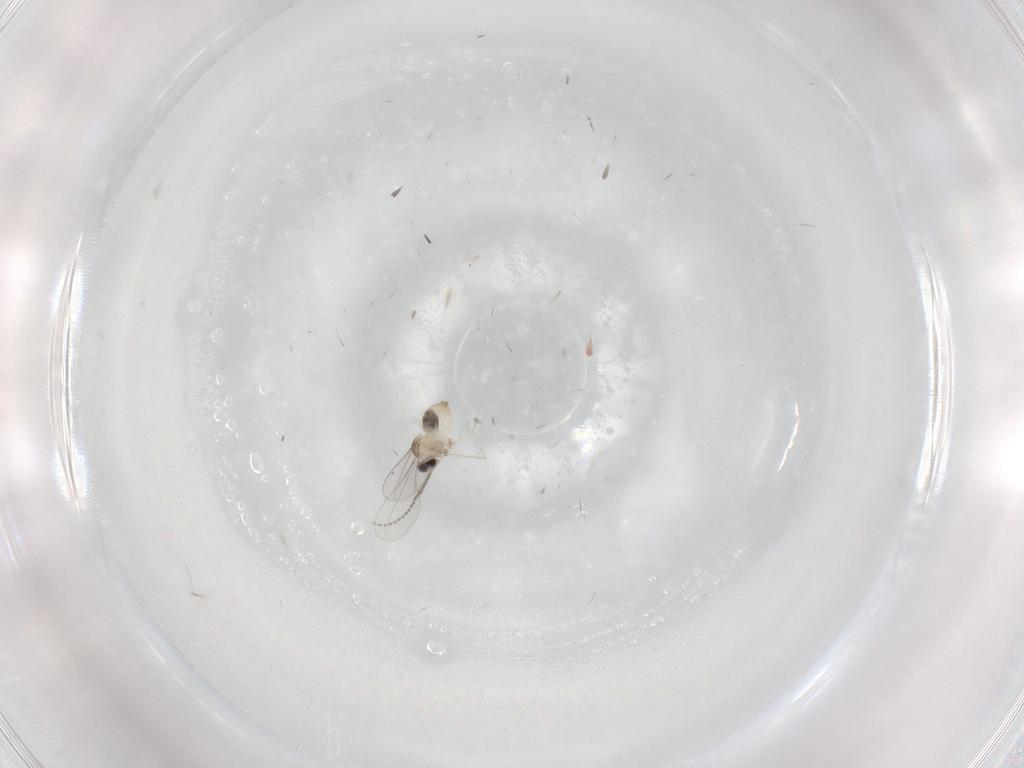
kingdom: Animalia
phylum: Arthropoda
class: Insecta
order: Diptera
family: Cecidomyiidae
